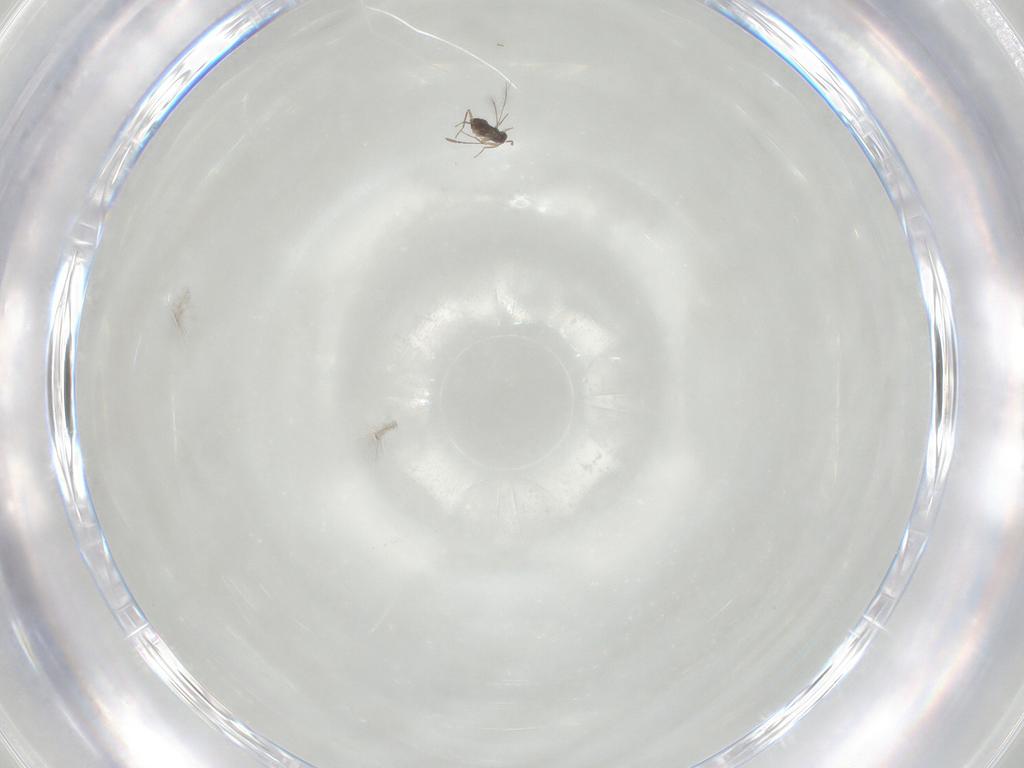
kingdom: Animalia
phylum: Arthropoda
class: Insecta
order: Hymenoptera
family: Mymaridae
